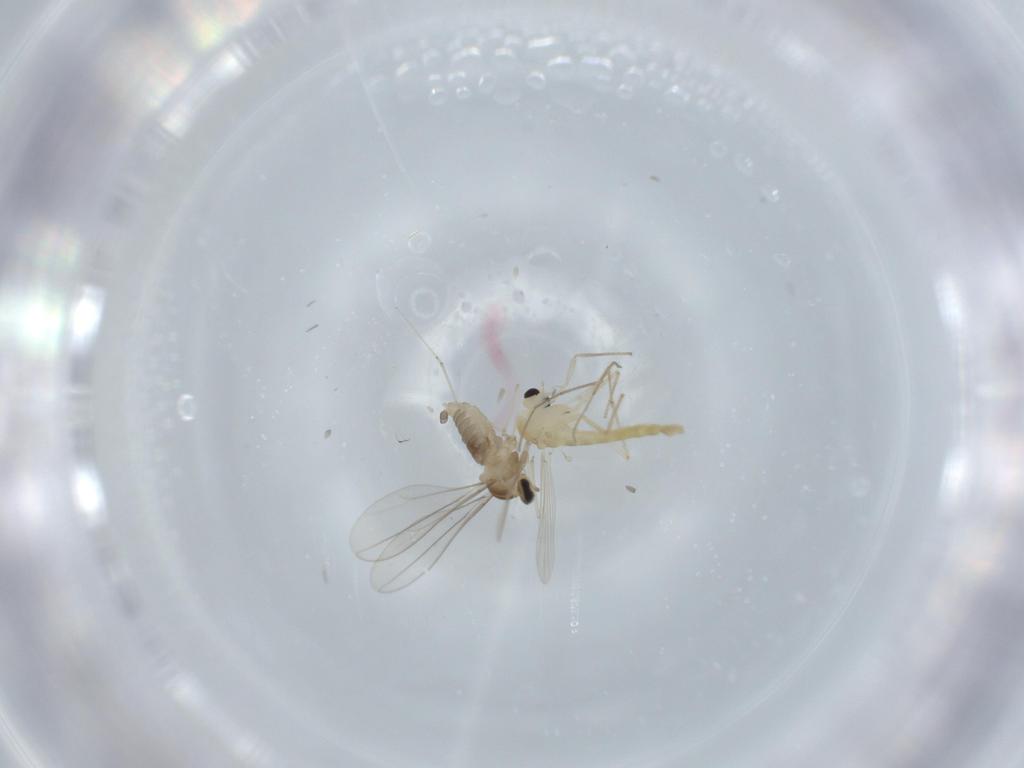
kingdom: Animalia
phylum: Arthropoda
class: Insecta
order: Diptera
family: Cecidomyiidae
